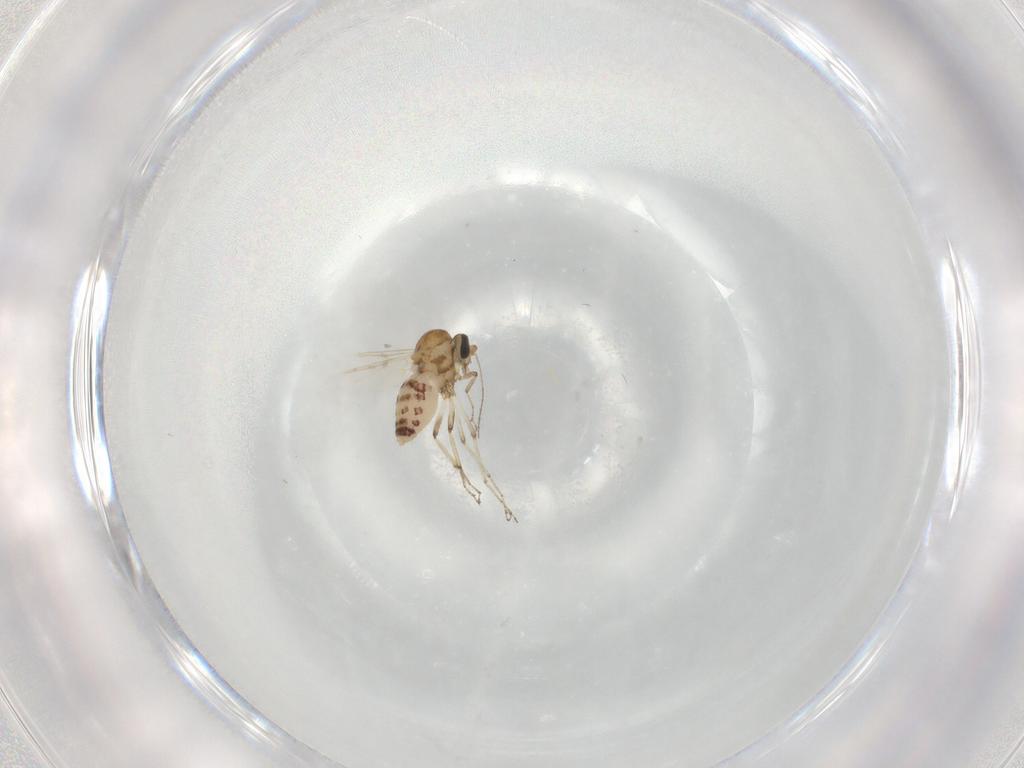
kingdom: Animalia
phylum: Arthropoda
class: Insecta
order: Diptera
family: Ceratopogonidae
